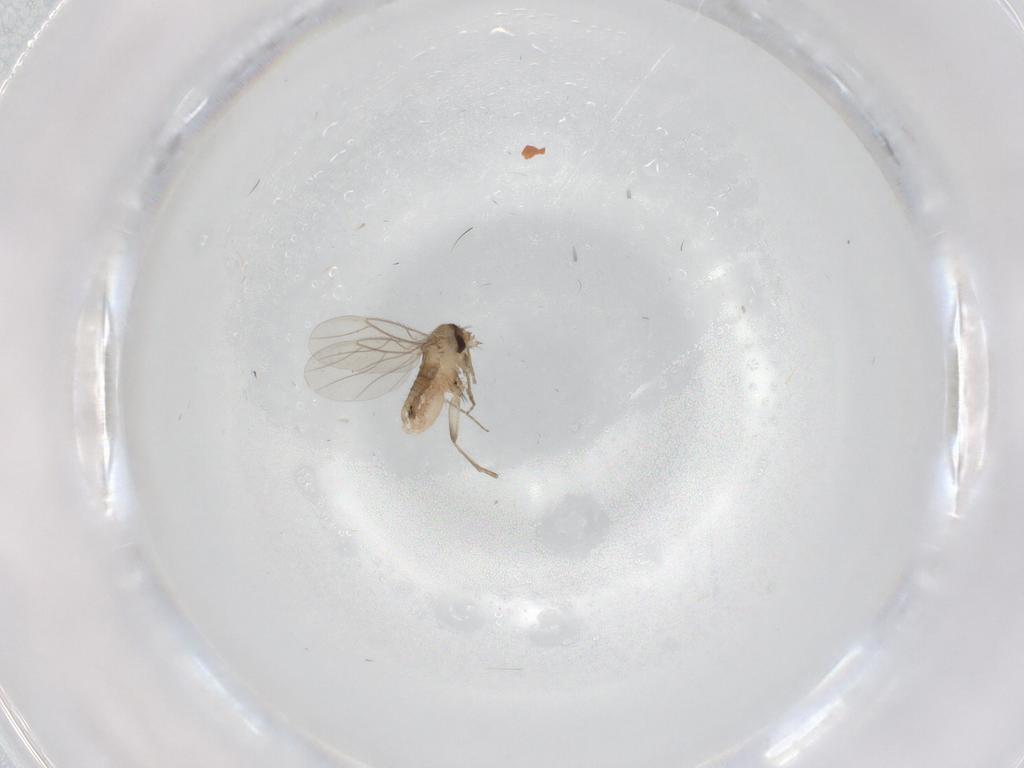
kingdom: Animalia
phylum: Arthropoda
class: Insecta
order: Diptera
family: Phoridae
